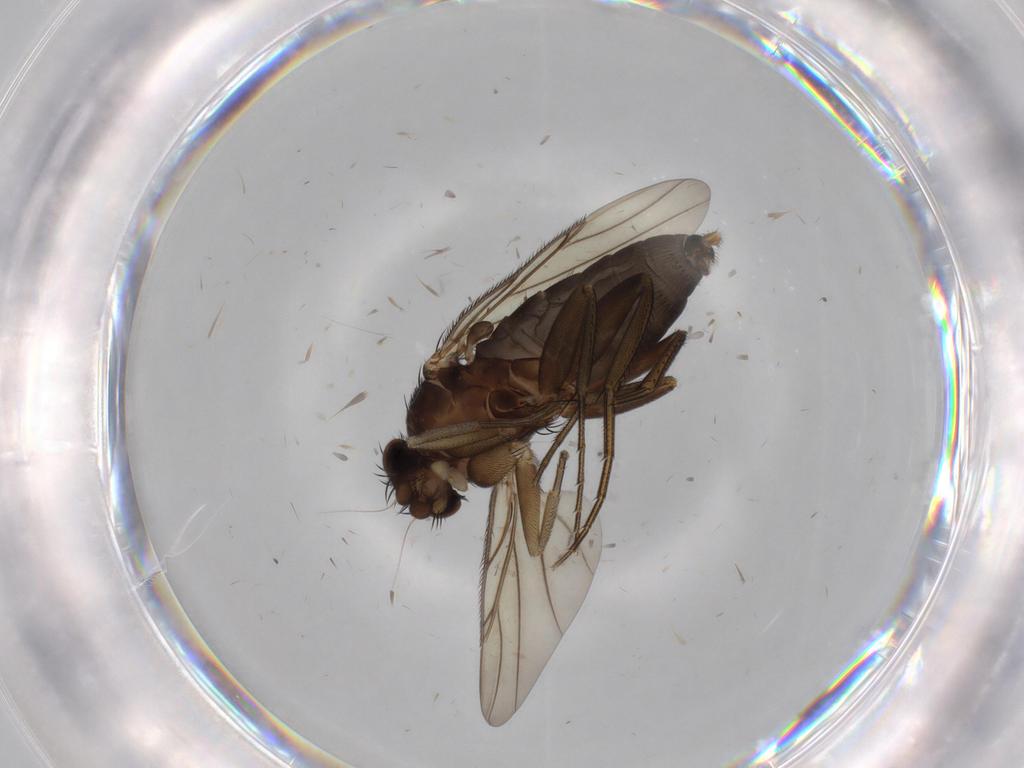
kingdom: Animalia
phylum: Arthropoda
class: Insecta
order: Diptera
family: Phoridae
